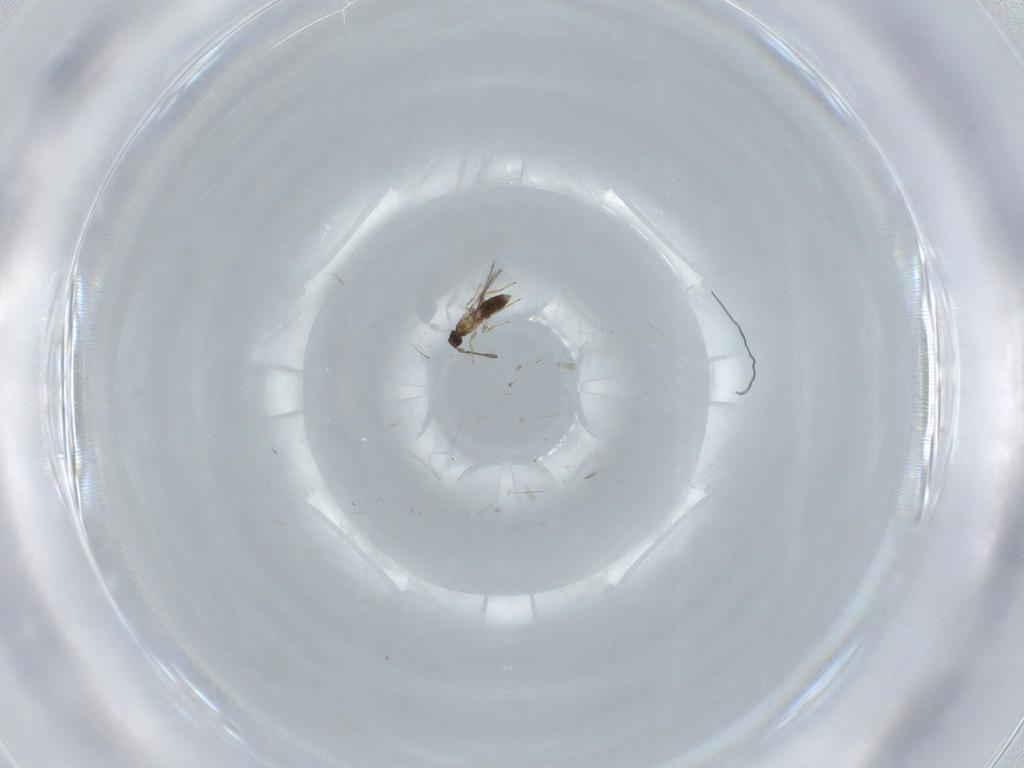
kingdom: Animalia
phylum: Arthropoda
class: Insecta
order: Hymenoptera
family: Mymaridae
